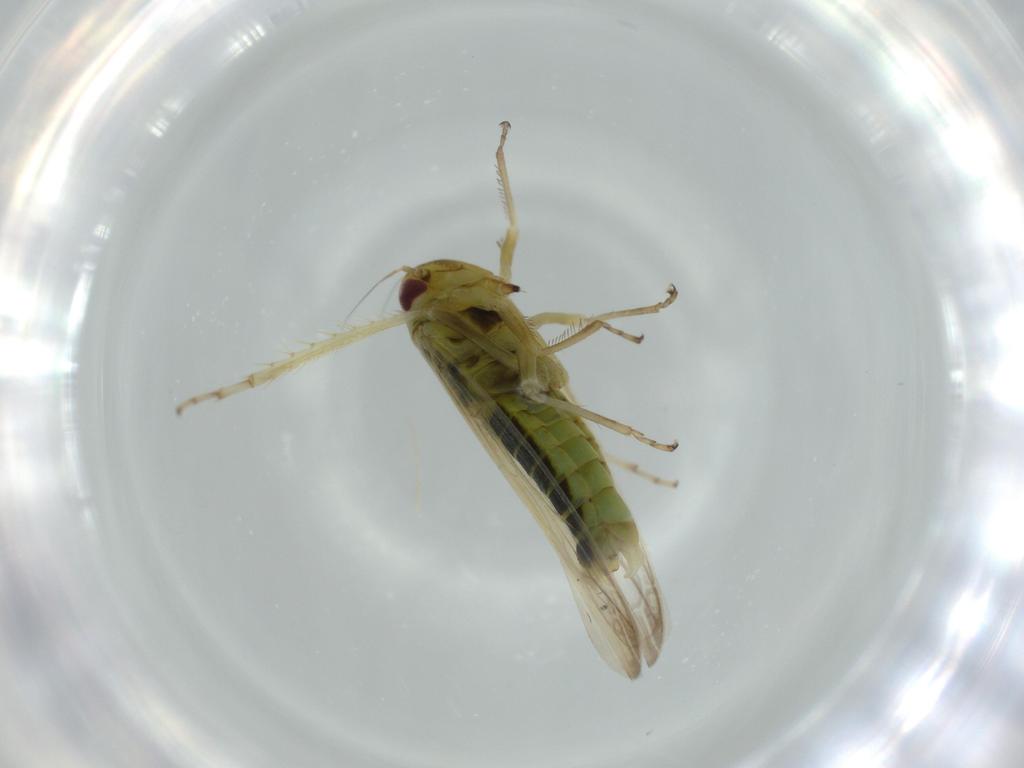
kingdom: Animalia
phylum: Arthropoda
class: Insecta
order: Hemiptera
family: Cicadellidae
